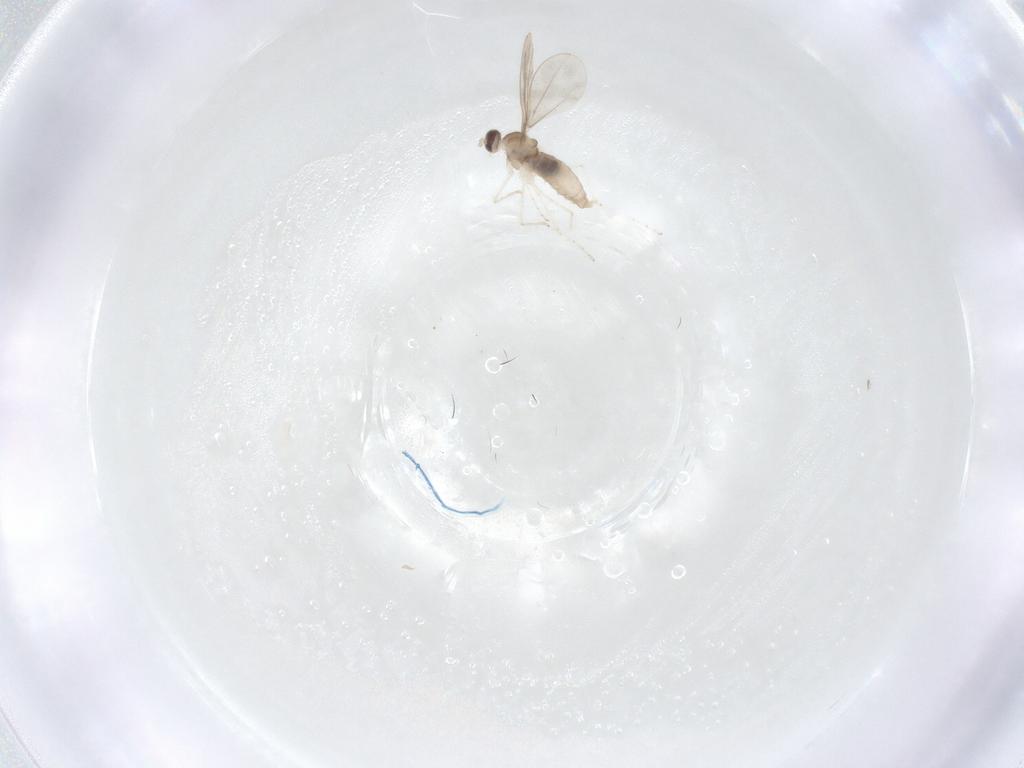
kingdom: Animalia
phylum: Arthropoda
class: Insecta
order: Diptera
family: Cecidomyiidae
